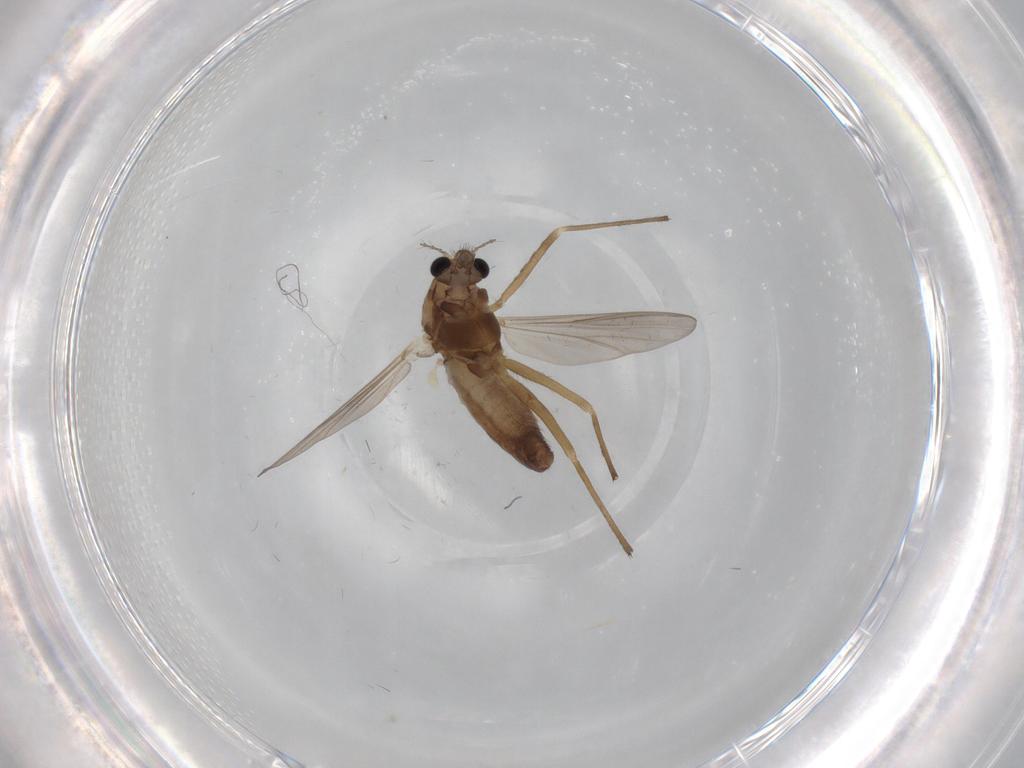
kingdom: Animalia
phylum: Arthropoda
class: Insecta
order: Diptera
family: Chironomidae
